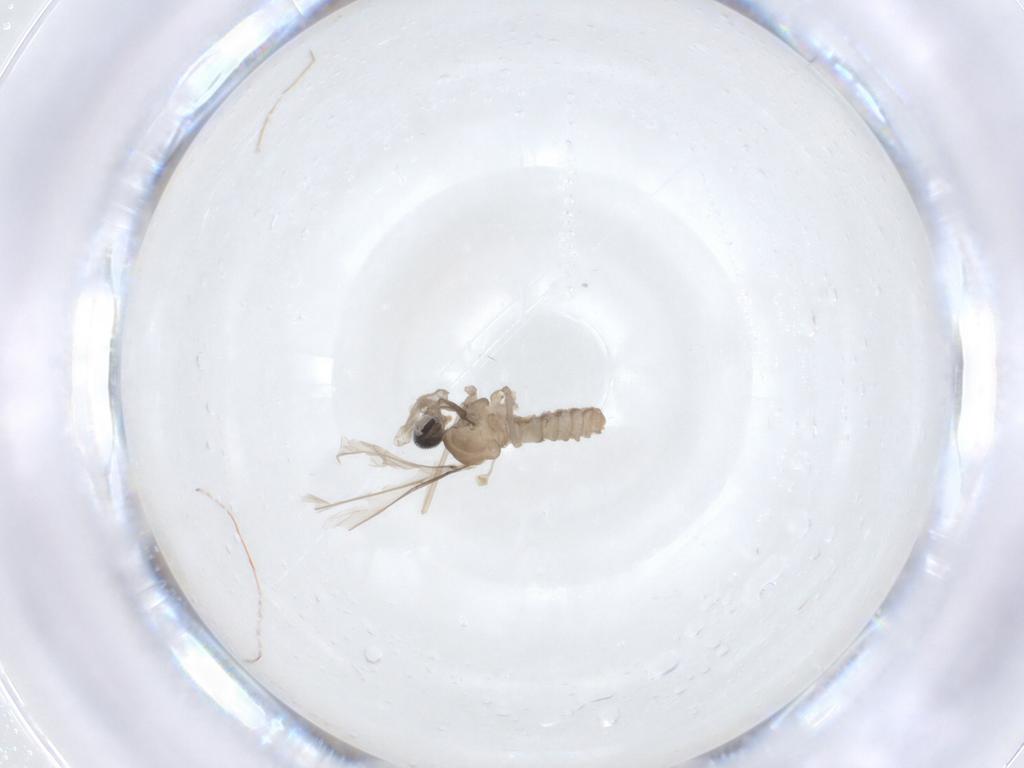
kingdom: Animalia
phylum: Arthropoda
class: Insecta
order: Diptera
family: Cecidomyiidae
